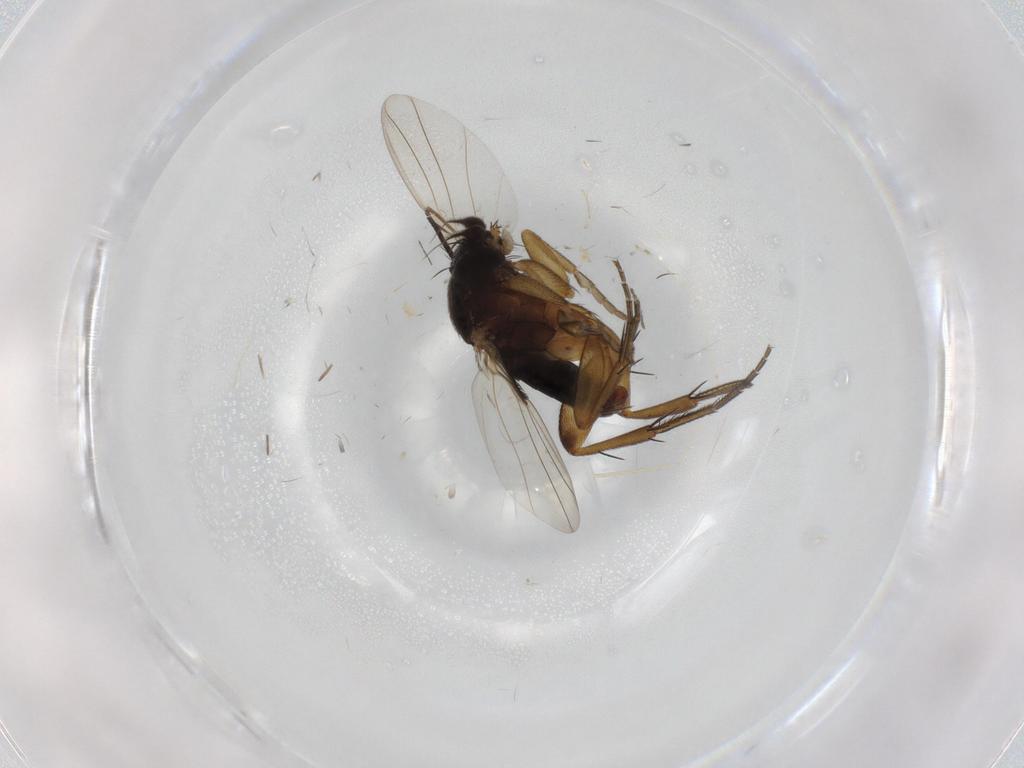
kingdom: Animalia
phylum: Arthropoda
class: Insecta
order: Diptera
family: Phoridae
